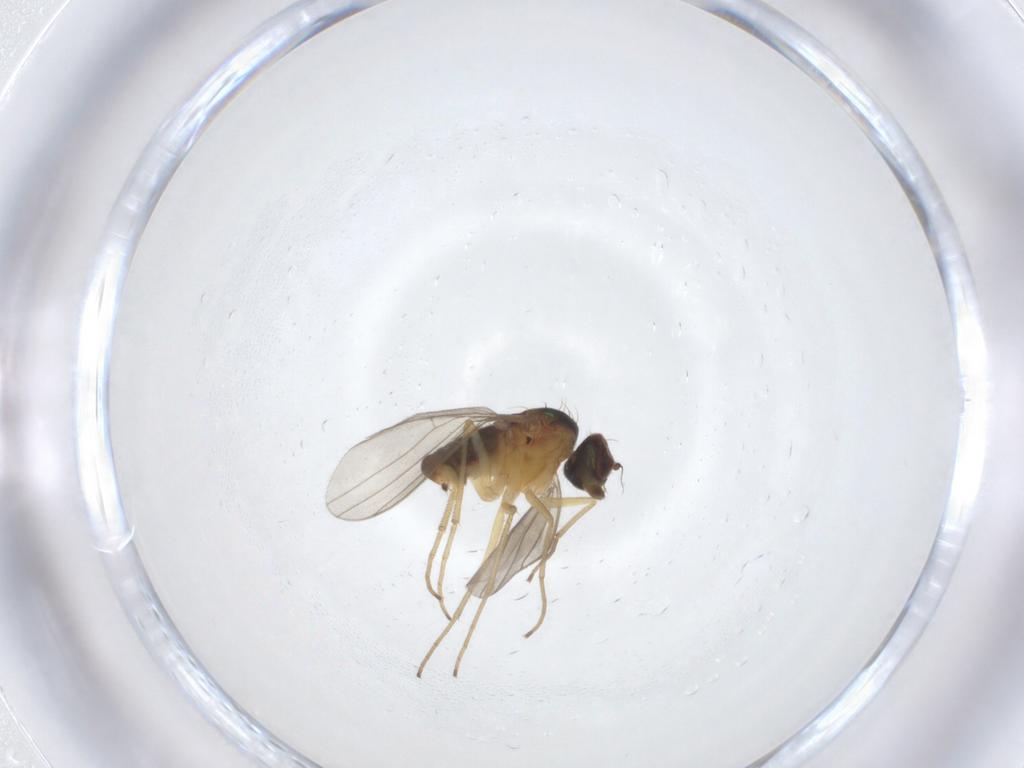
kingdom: Animalia
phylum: Arthropoda
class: Insecta
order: Diptera
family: Dolichopodidae
